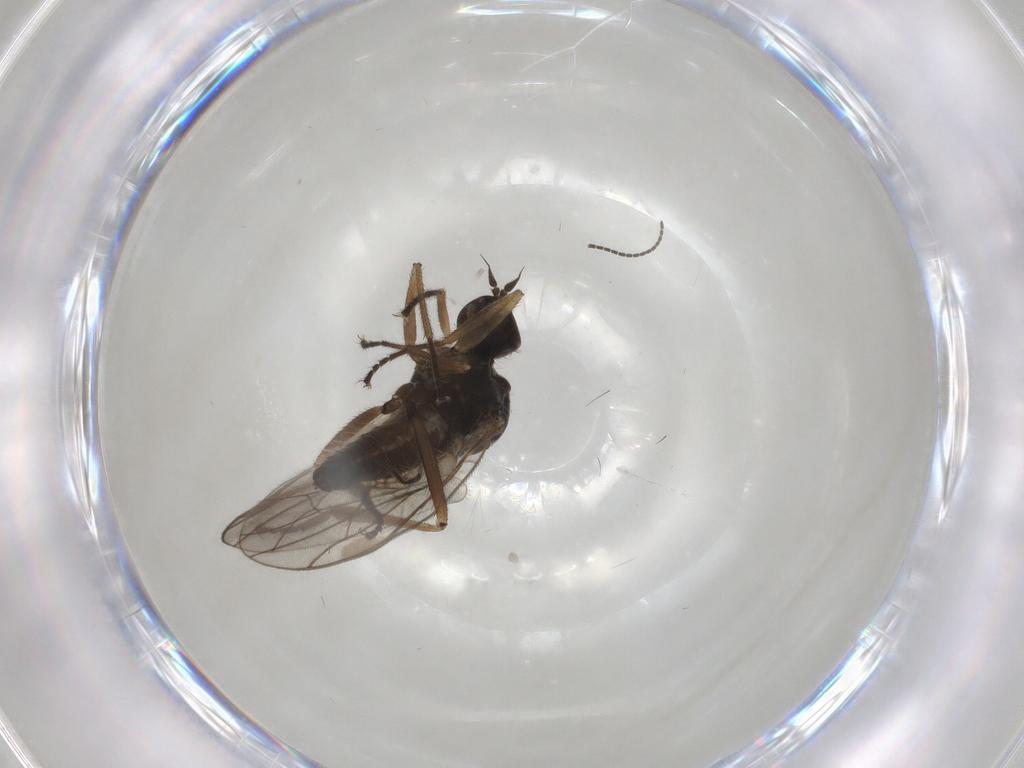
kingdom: Animalia
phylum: Arthropoda
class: Insecta
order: Diptera
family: Hybotidae
